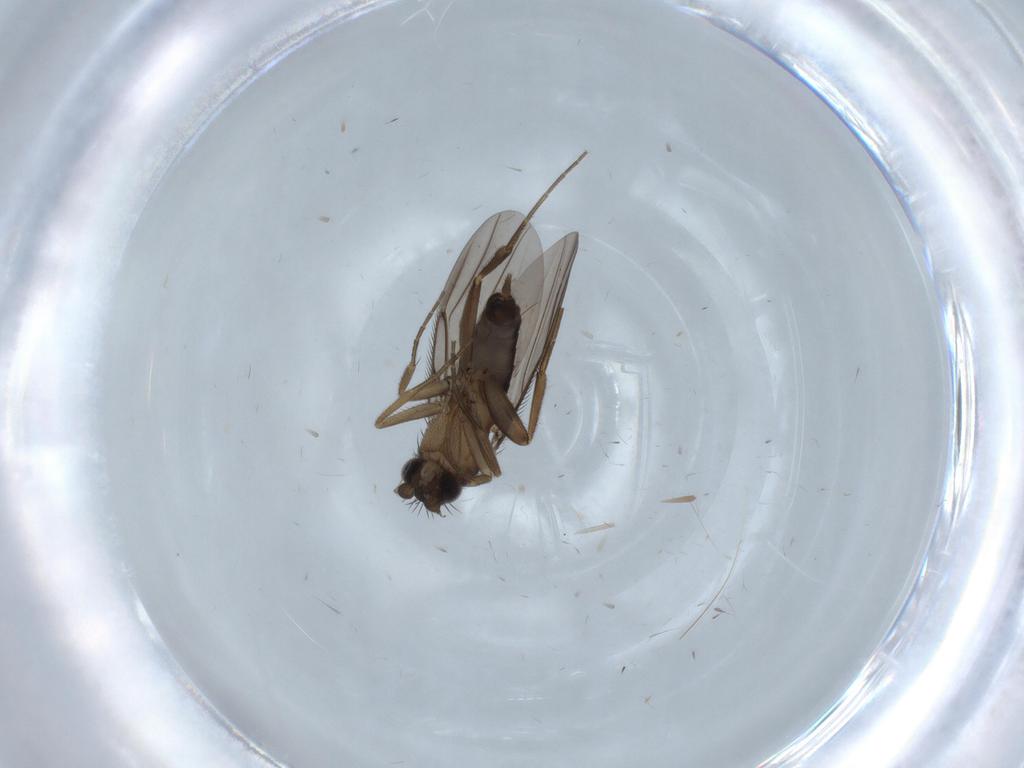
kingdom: Animalia
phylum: Arthropoda
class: Insecta
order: Diptera
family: Phoridae
